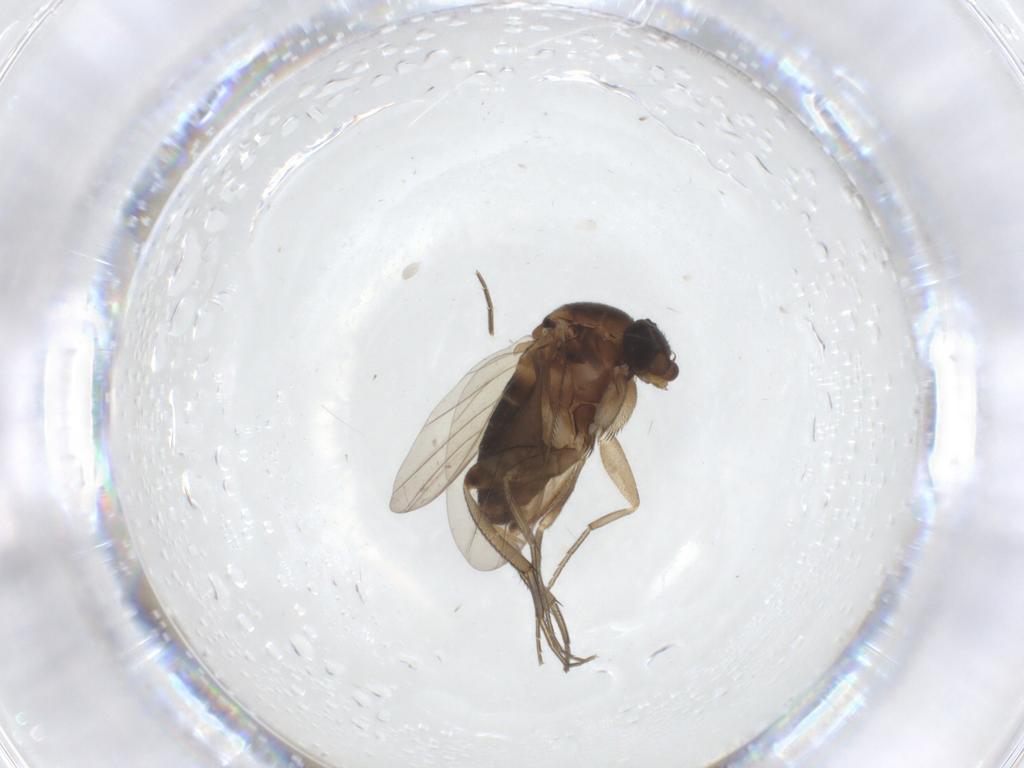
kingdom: Animalia
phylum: Arthropoda
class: Insecta
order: Diptera
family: Phoridae
